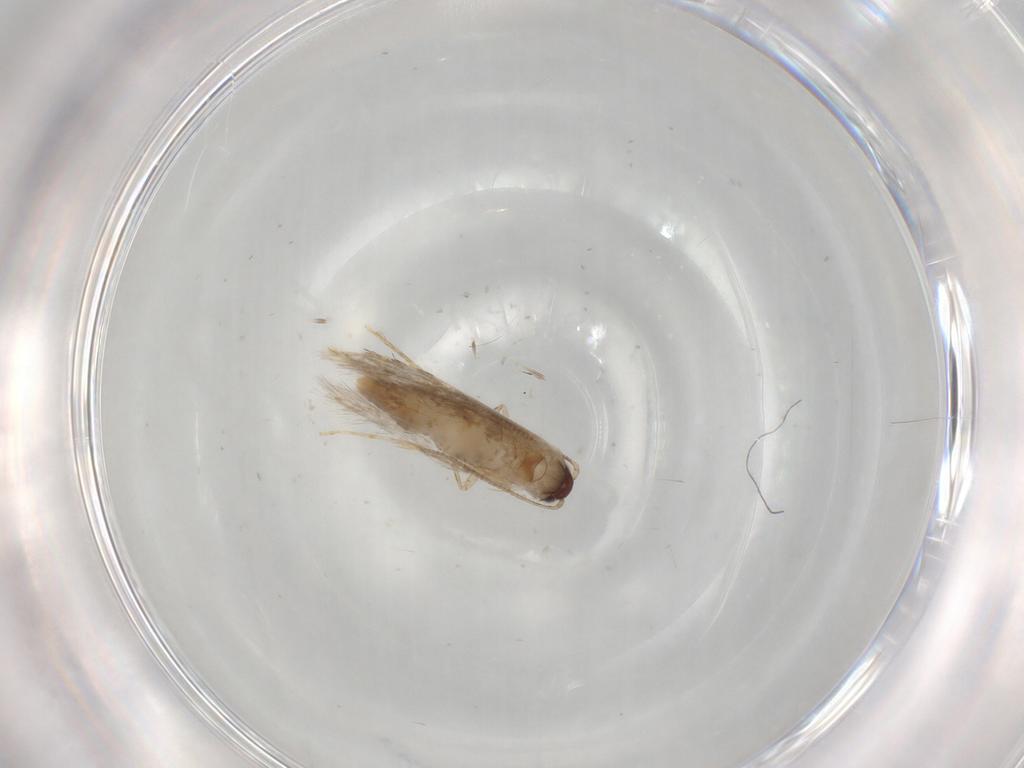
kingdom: Animalia
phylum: Arthropoda
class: Insecta
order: Lepidoptera
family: Tineidae
